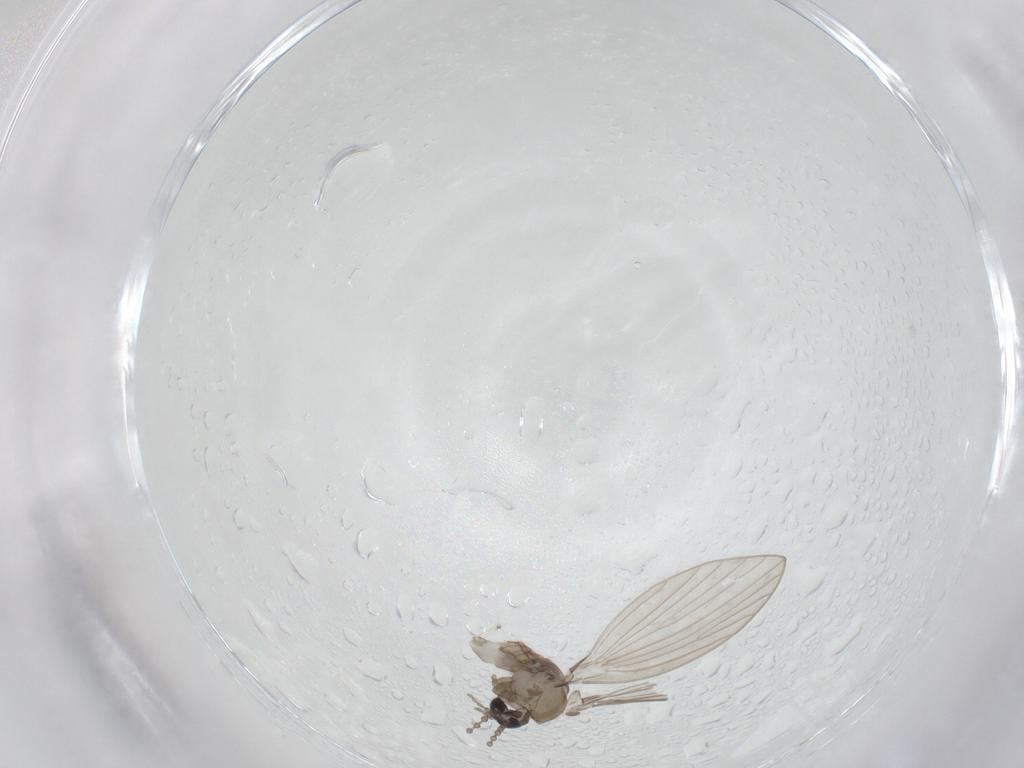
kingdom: Animalia
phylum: Arthropoda
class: Insecta
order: Diptera
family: Psychodidae
